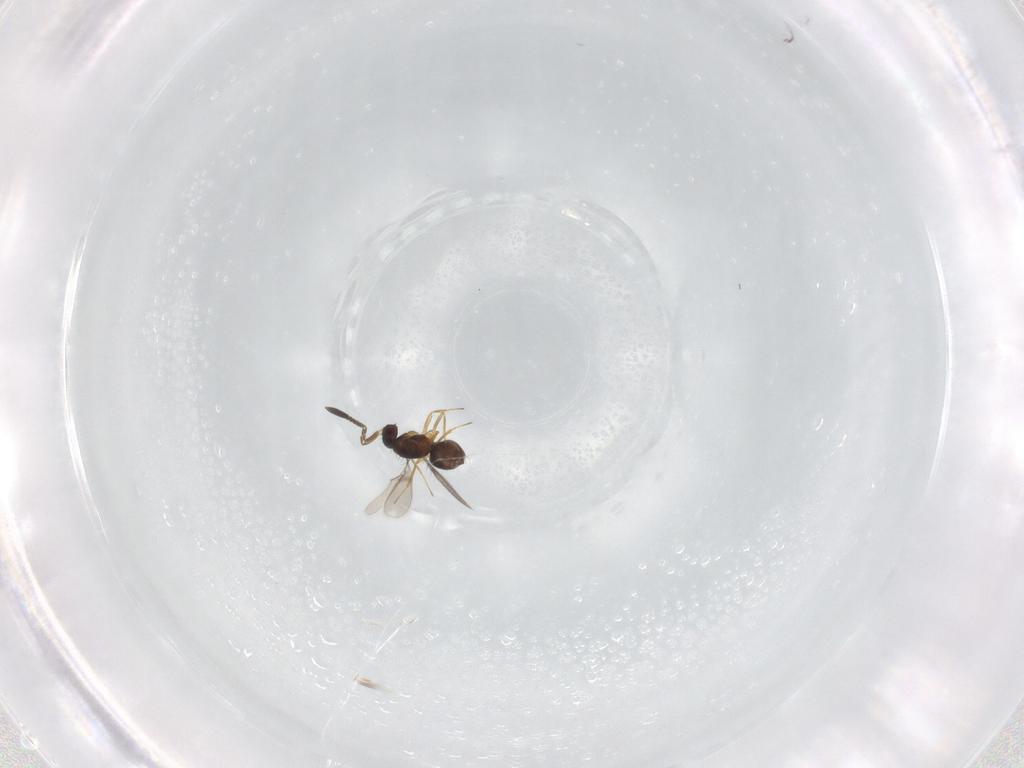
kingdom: Animalia
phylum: Arthropoda
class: Insecta
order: Hymenoptera
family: Mymaridae
